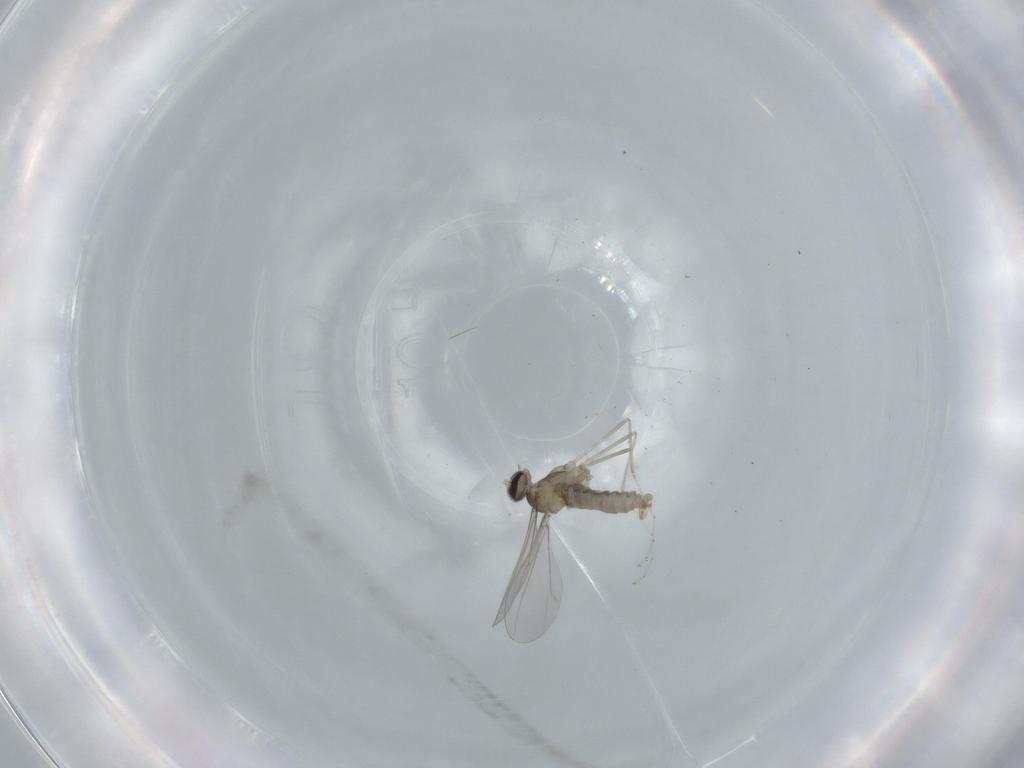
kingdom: Animalia
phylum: Arthropoda
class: Insecta
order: Diptera
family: Cecidomyiidae
